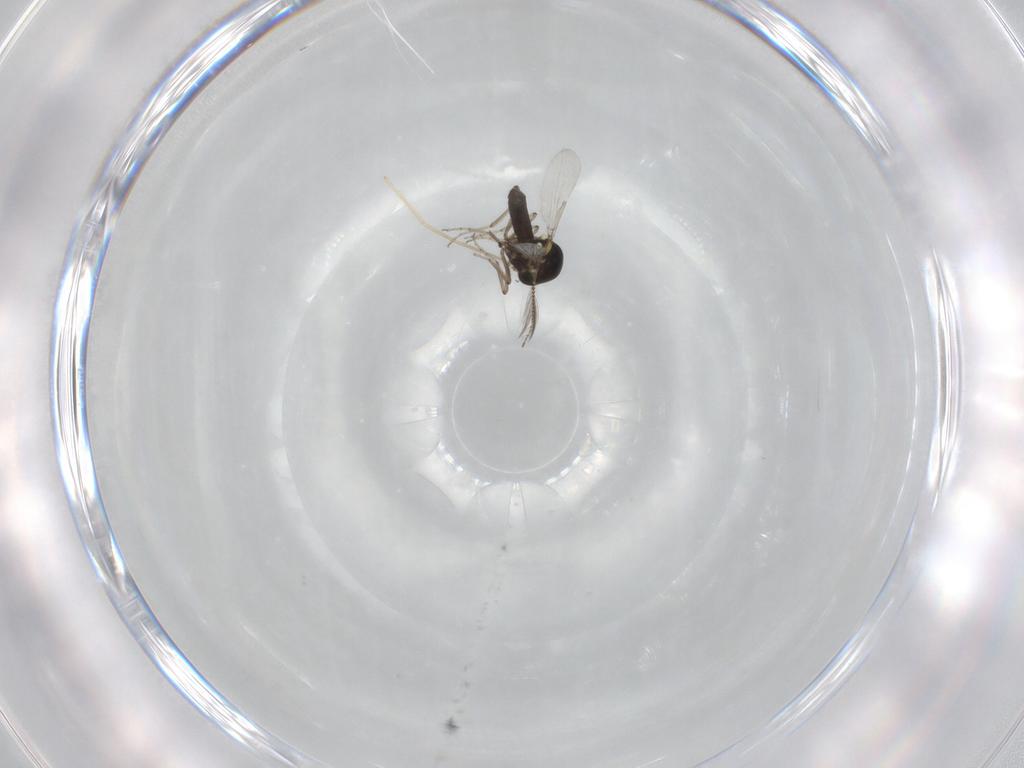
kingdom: Animalia
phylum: Arthropoda
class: Insecta
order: Diptera
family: Ceratopogonidae
